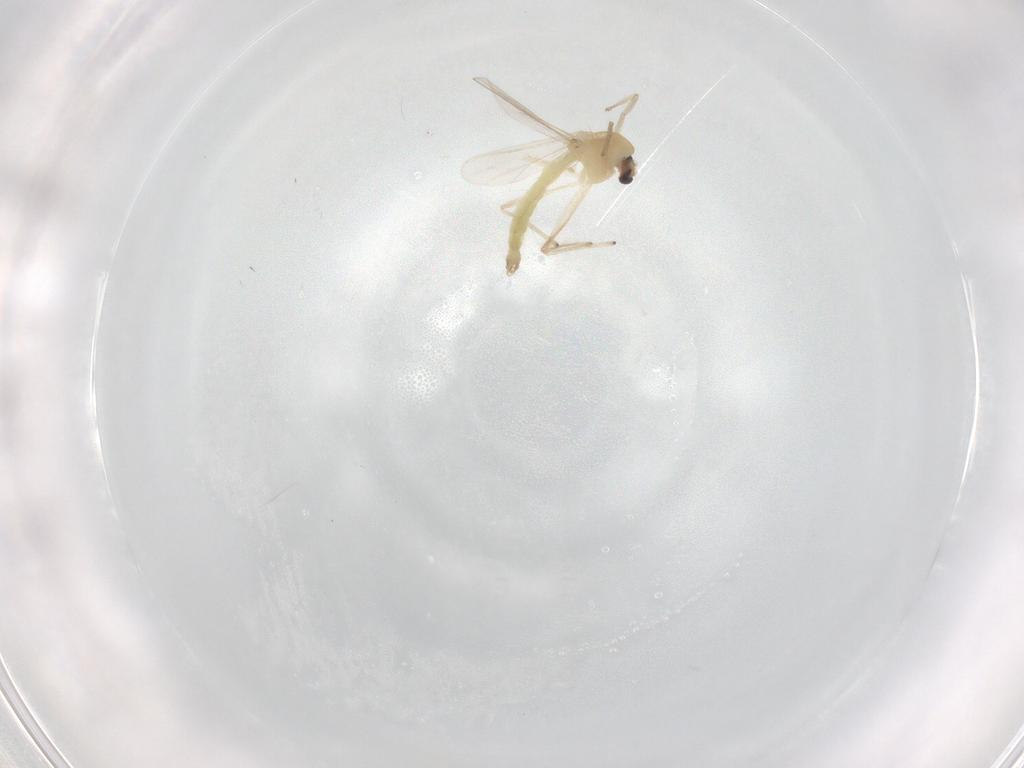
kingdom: Animalia
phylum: Arthropoda
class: Insecta
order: Diptera
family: Chironomidae
